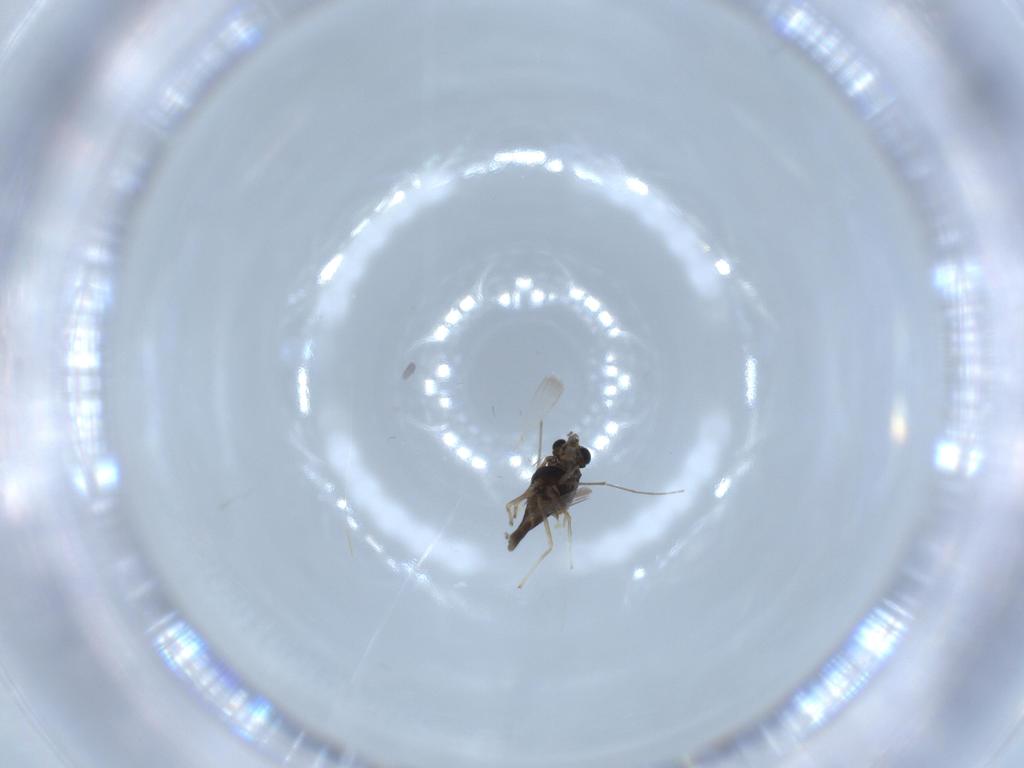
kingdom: Animalia
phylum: Arthropoda
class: Insecta
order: Diptera
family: Chironomidae
